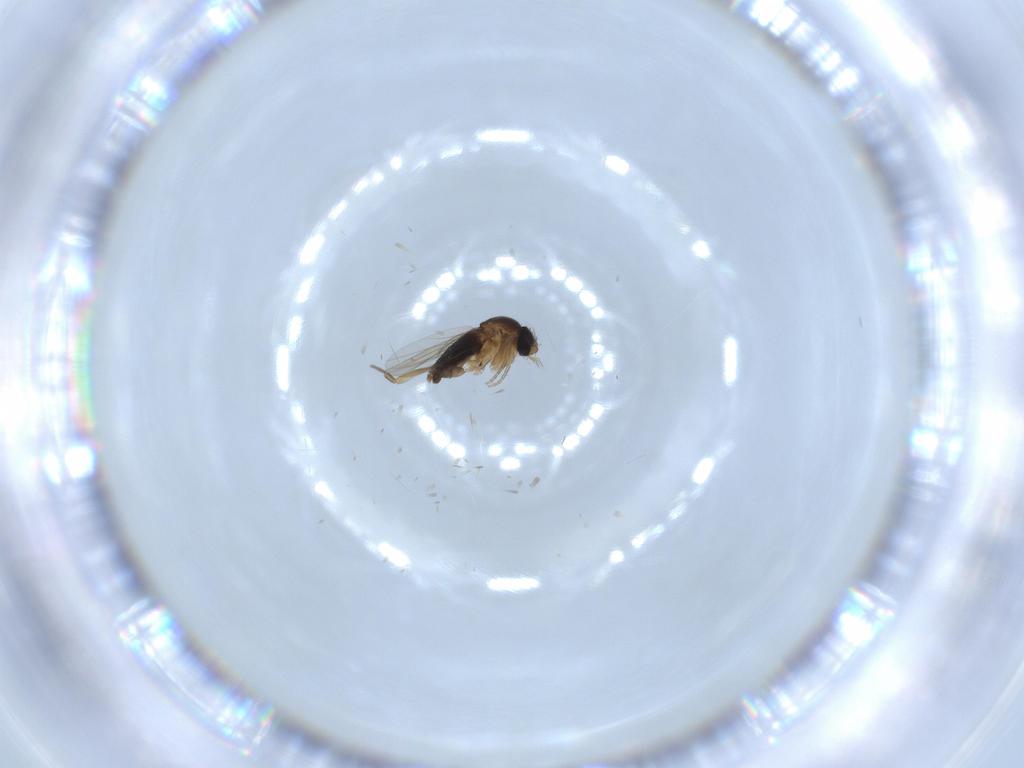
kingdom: Animalia
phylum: Arthropoda
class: Insecta
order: Diptera
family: Phoridae
